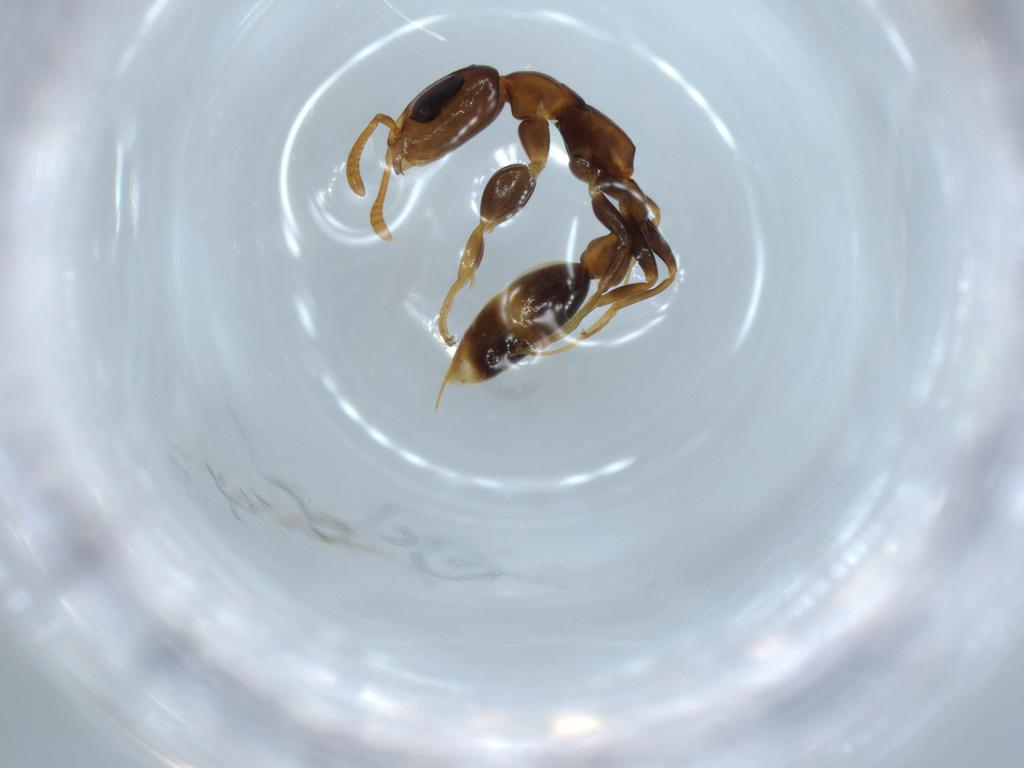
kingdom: Animalia
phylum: Arthropoda
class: Insecta
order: Hymenoptera
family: Formicidae
